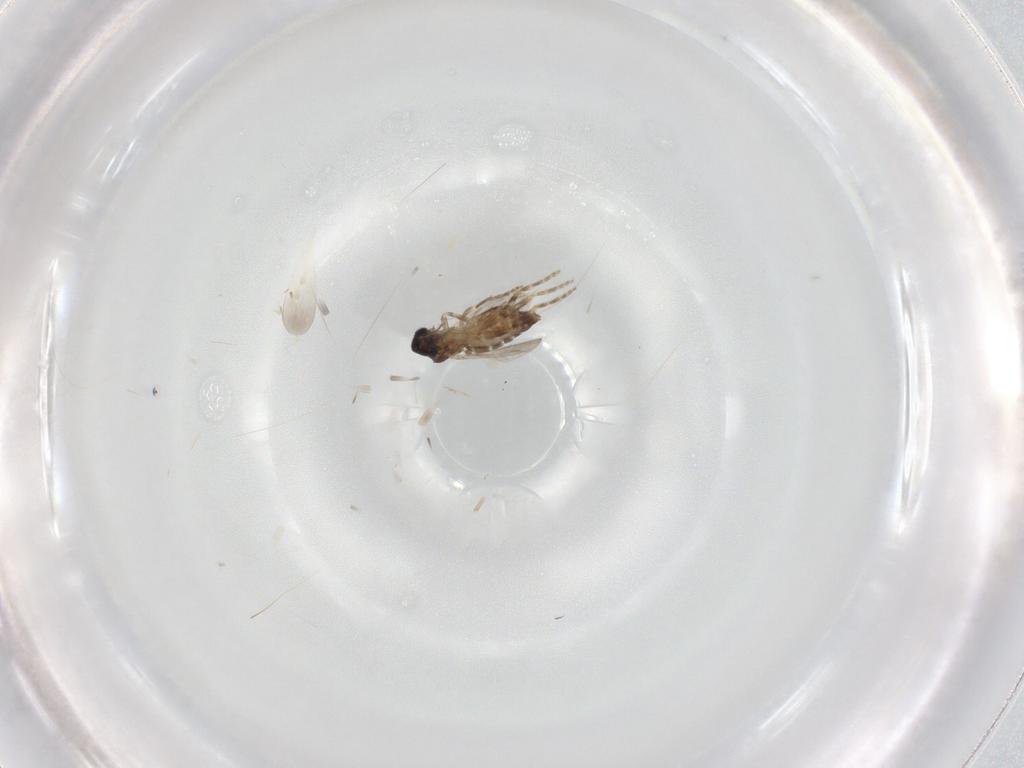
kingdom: Animalia
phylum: Arthropoda
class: Insecta
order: Diptera
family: Ceratopogonidae
